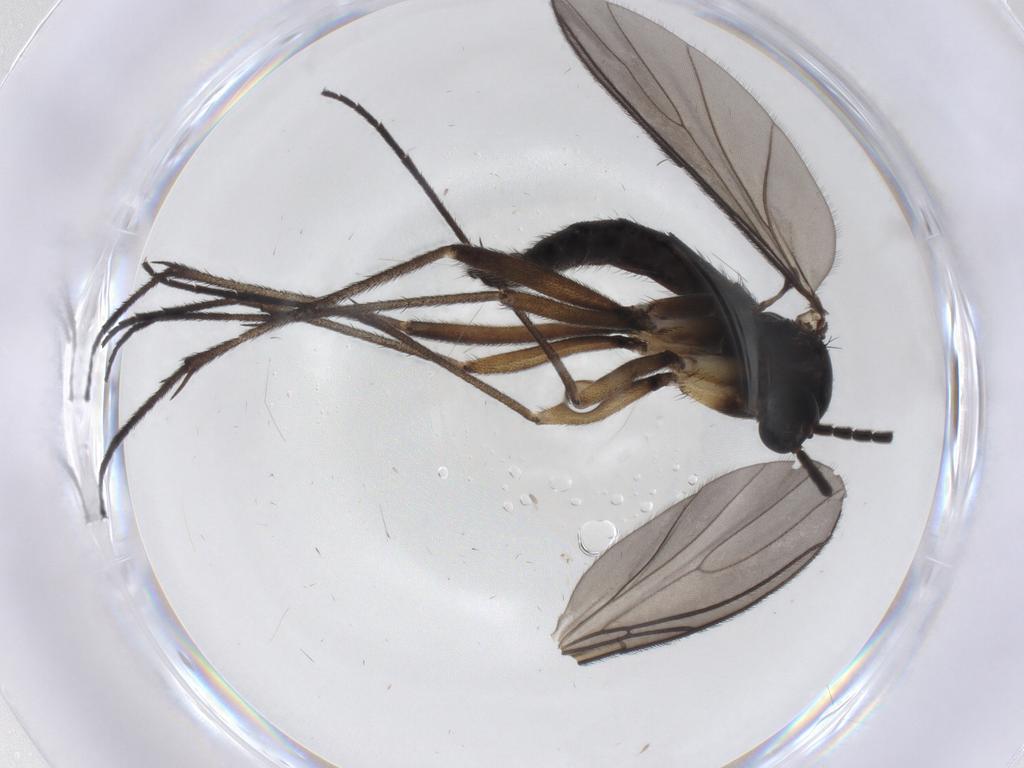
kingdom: Animalia
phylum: Arthropoda
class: Insecta
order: Diptera
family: Sciaridae
